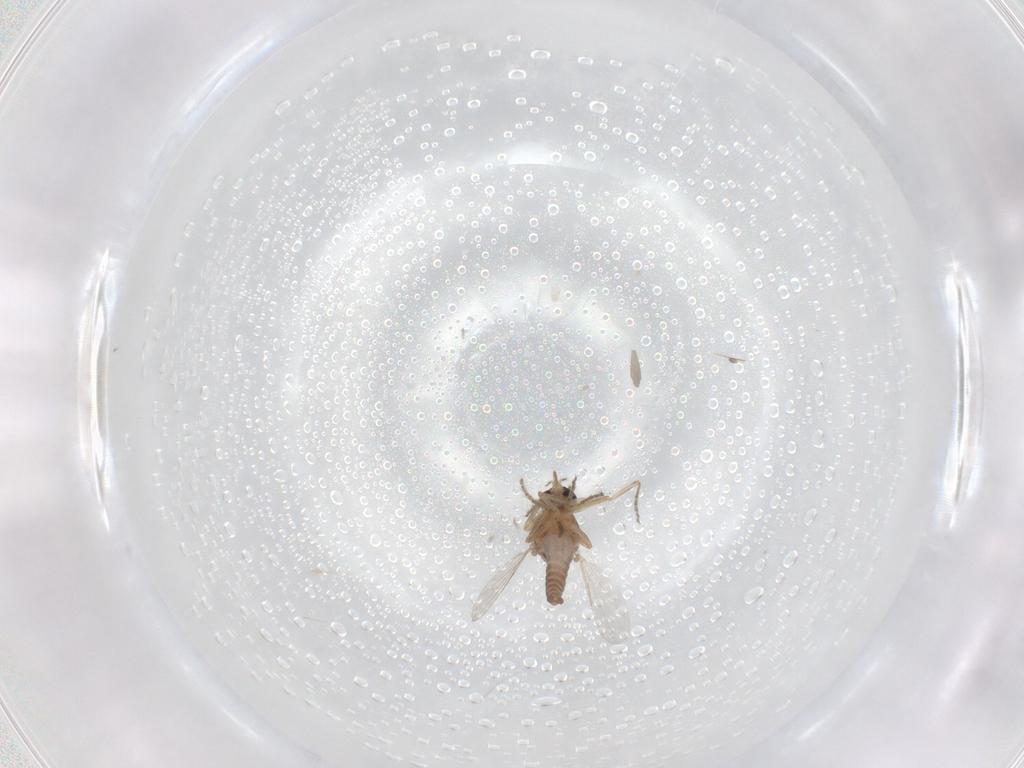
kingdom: Animalia
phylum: Arthropoda
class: Insecta
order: Diptera
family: Ceratopogonidae
